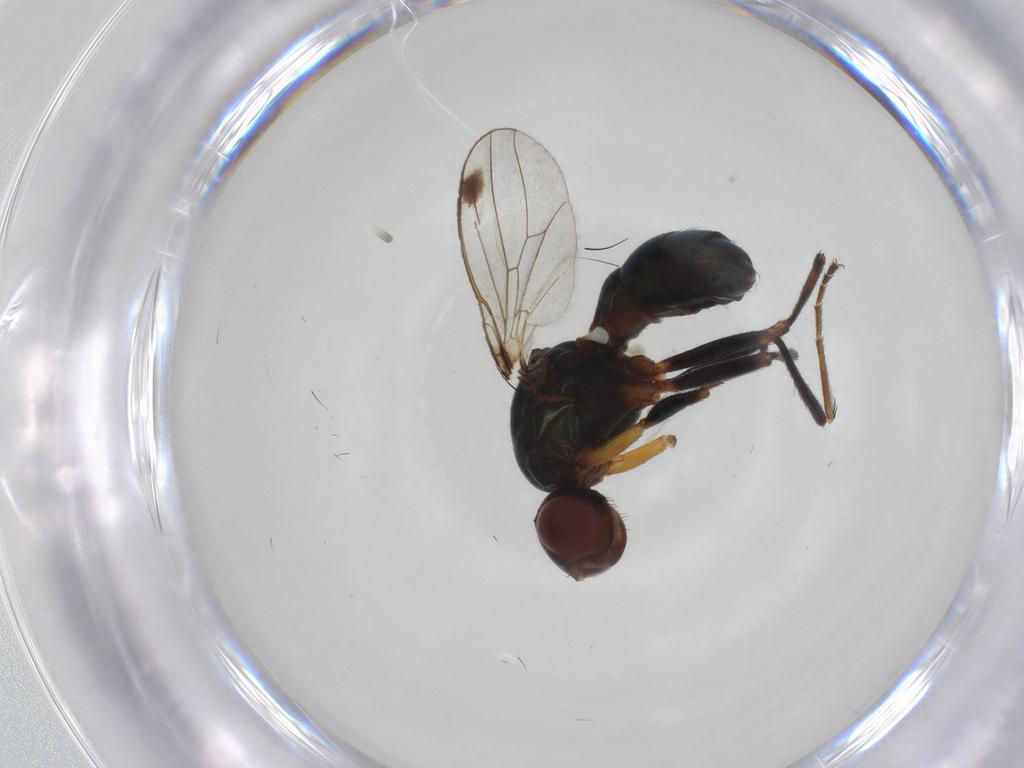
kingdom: Animalia
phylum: Arthropoda
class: Insecta
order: Diptera
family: Sepsidae
